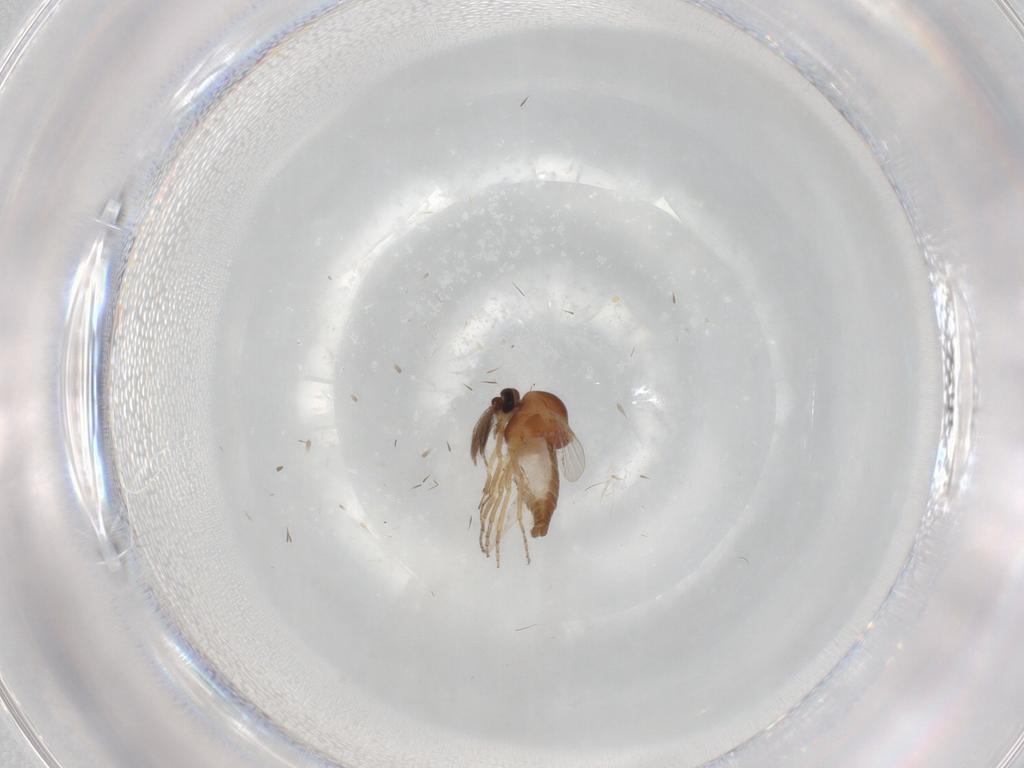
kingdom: Animalia
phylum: Arthropoda
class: Insecta
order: Diptera
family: Ceratopogonidae
